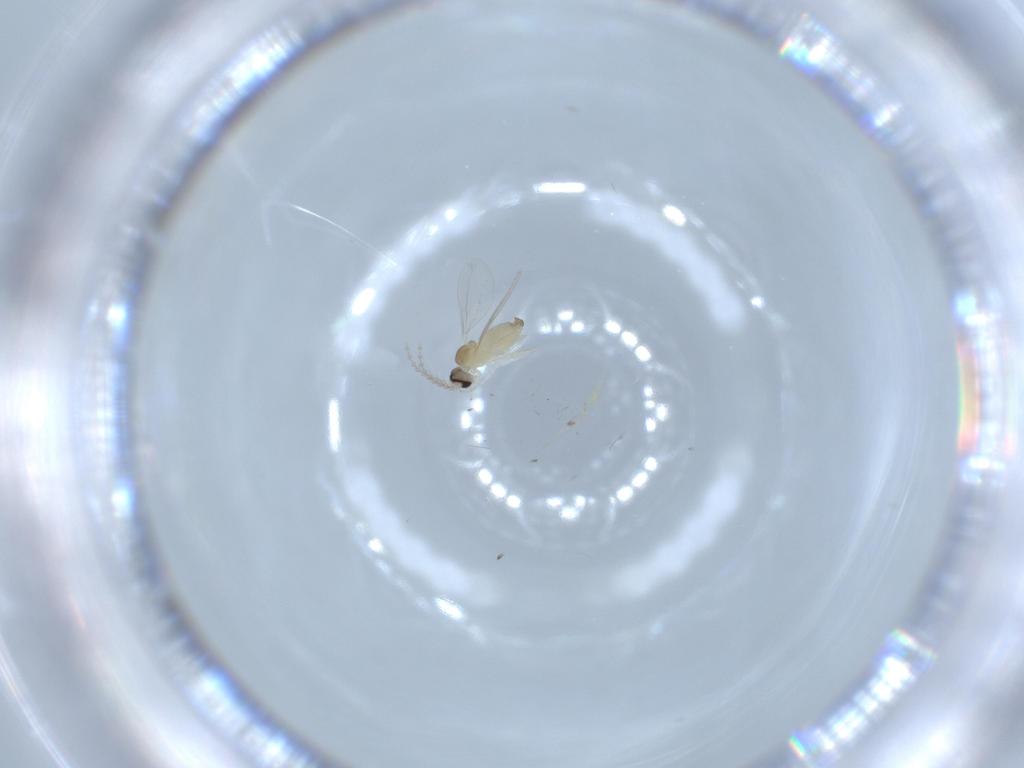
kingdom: Animalia
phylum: Arthropoda
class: Insecta
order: Diptera
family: Cecidomyiidae
